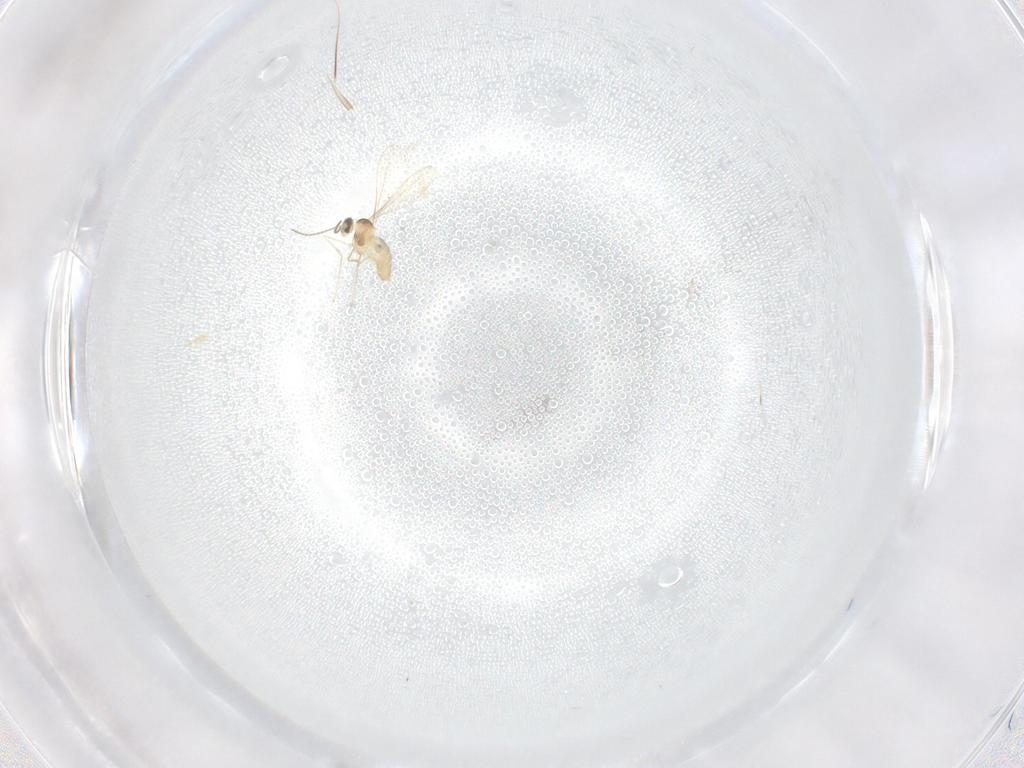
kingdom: Animalia
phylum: Arthropoda
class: Insecta
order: Diptera
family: Cecidomyiidae
